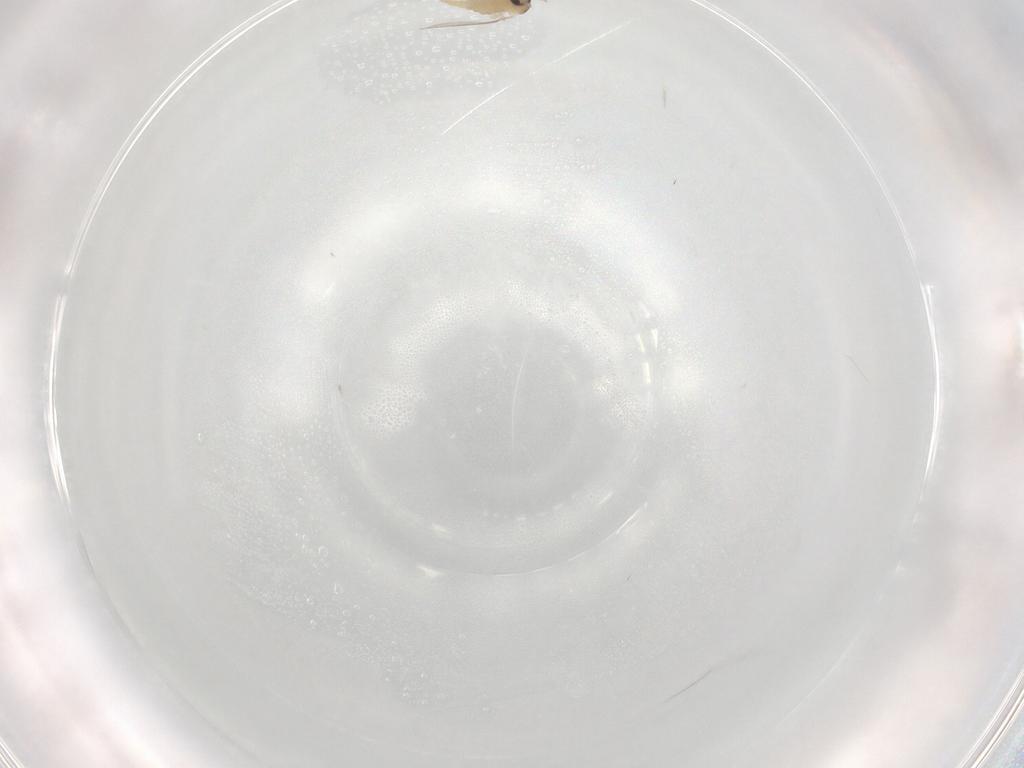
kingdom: Animalia
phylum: Arthropoda
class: Insecta
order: Diptera
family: Cecidomyiidae
